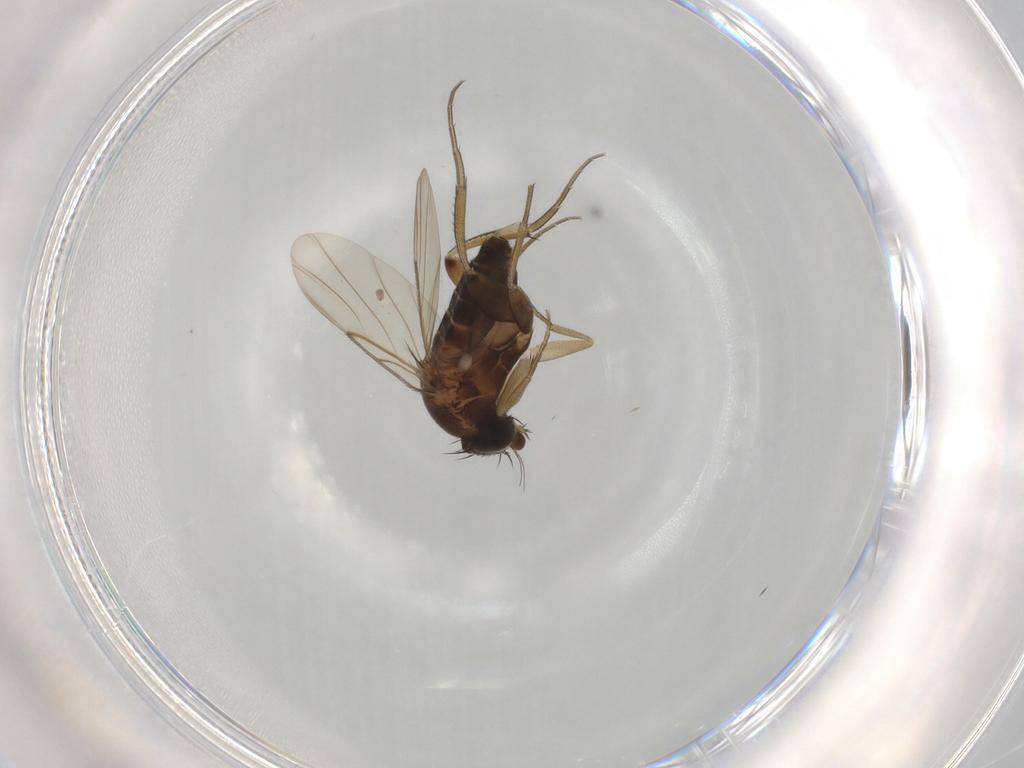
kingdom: Animalia
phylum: Arthropoda
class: Insecta
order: Diptera
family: Phoridae
